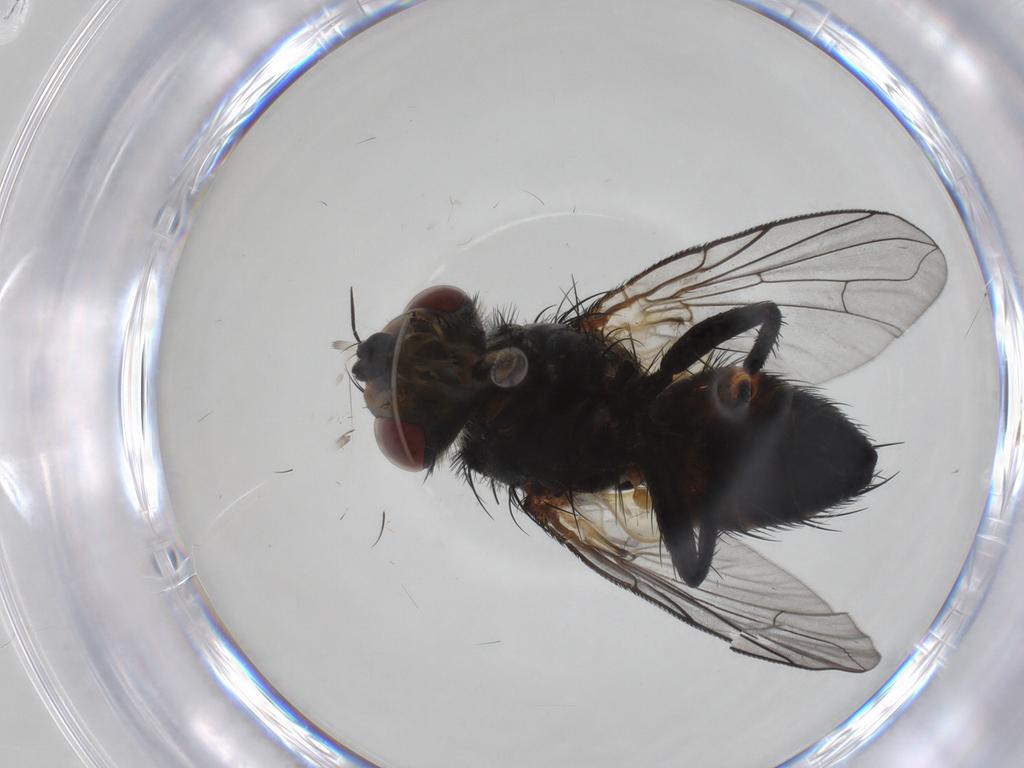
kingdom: Animalia
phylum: Arthropoda
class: Insecta
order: Diptera
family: Tachinidae
